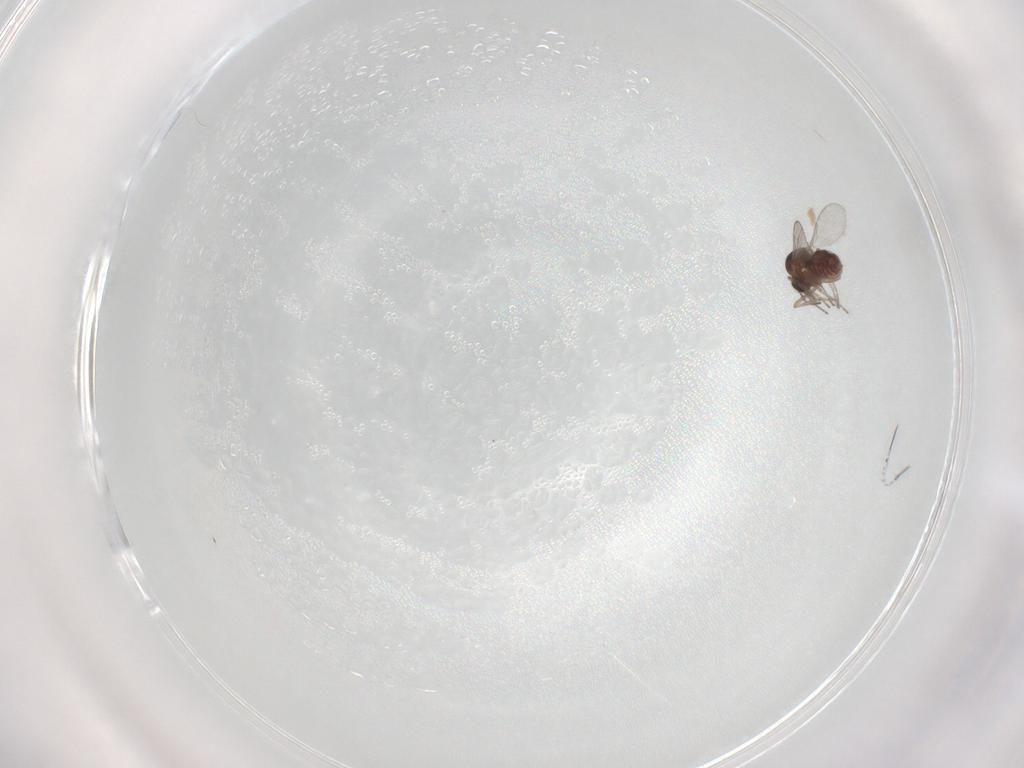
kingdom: Animalia
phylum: Arthropoda
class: Insecta
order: Diptera
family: Ceratopogonidae
